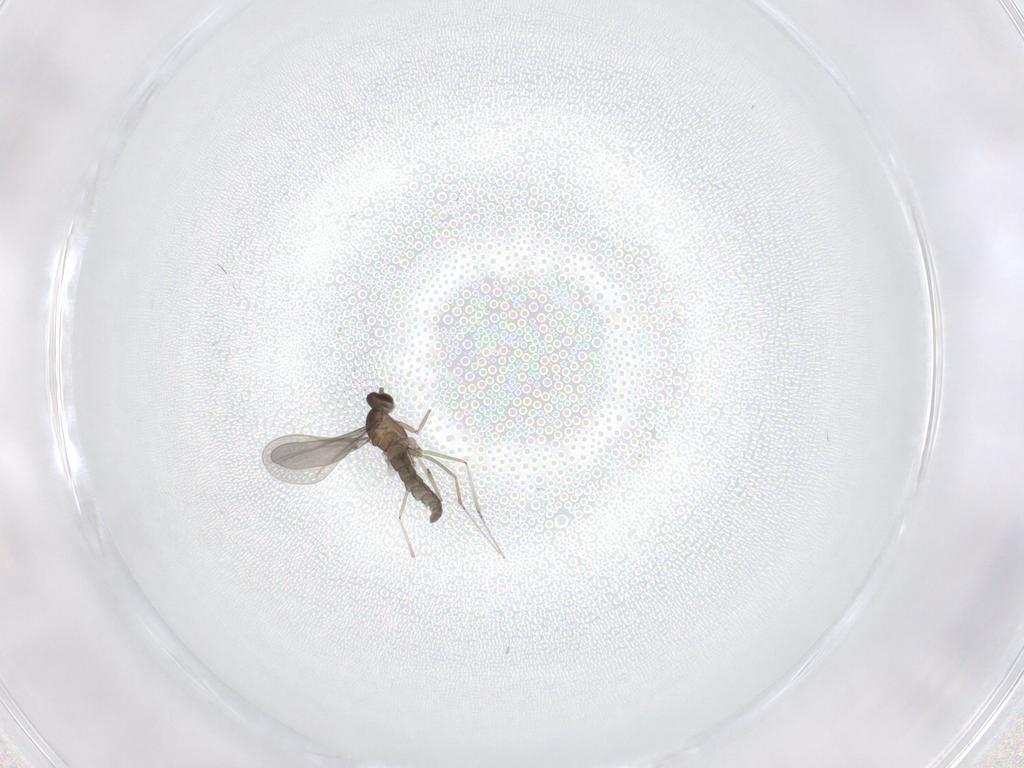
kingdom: Animalia
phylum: Arthropoda
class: Insecta
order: Diptera
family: Cecidomyiidae
